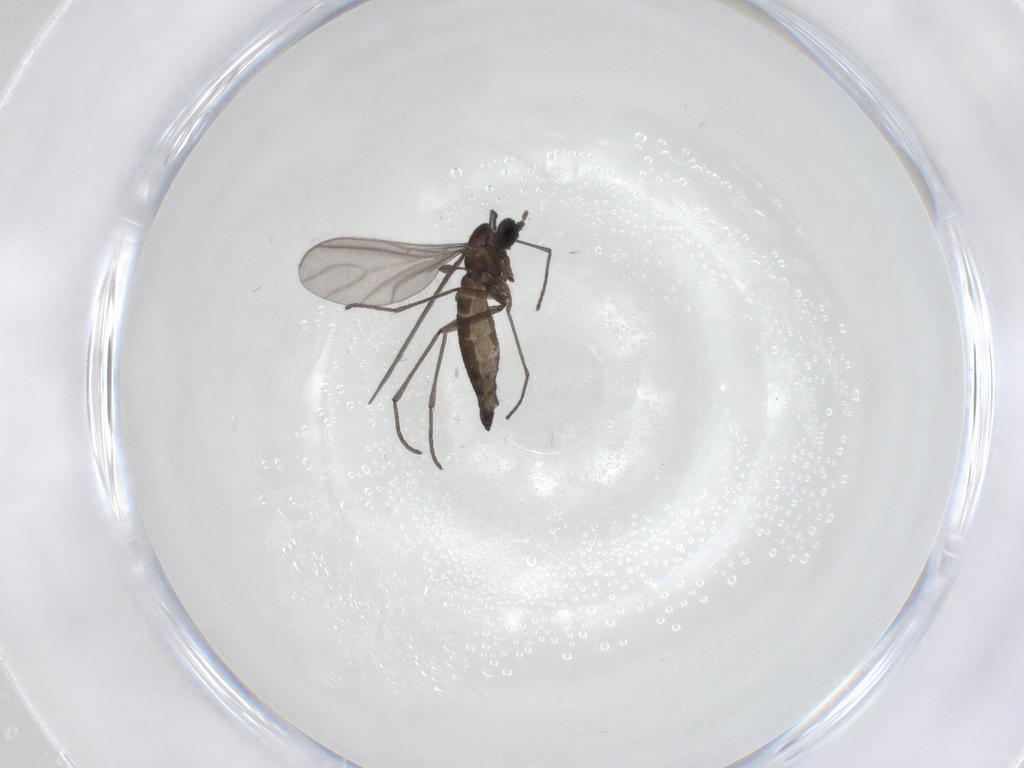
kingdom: Animalia
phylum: Arthropoda
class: Insecta
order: Diptera
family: Sciaridae
